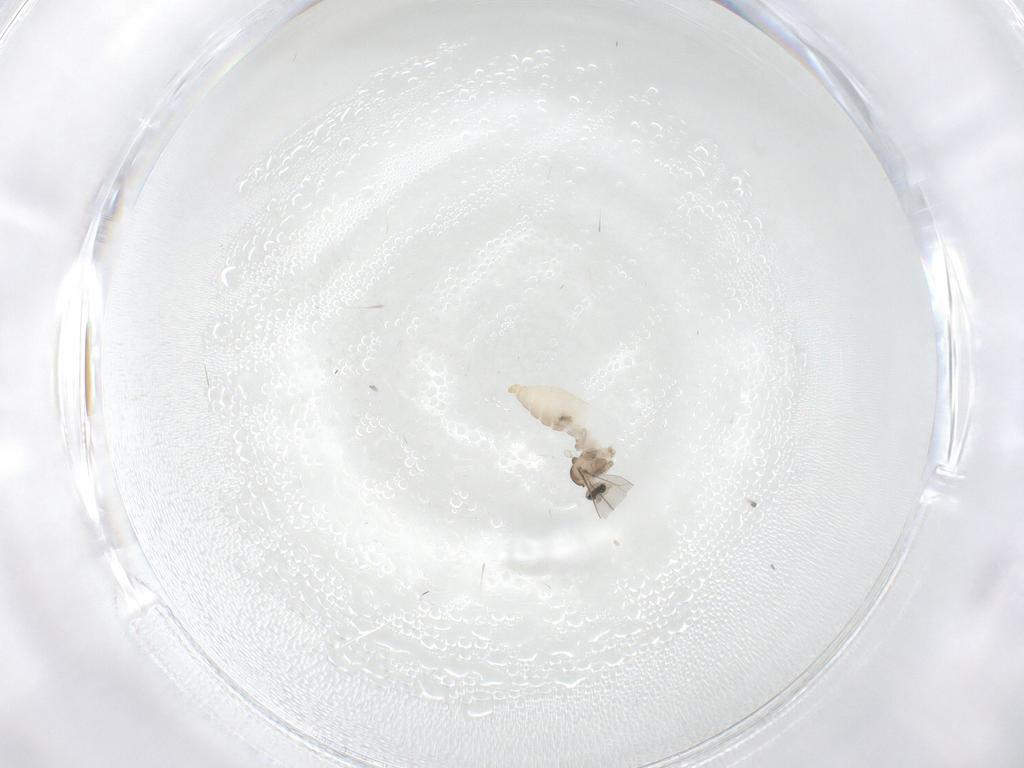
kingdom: Animalia
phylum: Arthropoda
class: Insecta
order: Diptera
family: Cecidomyiidae
